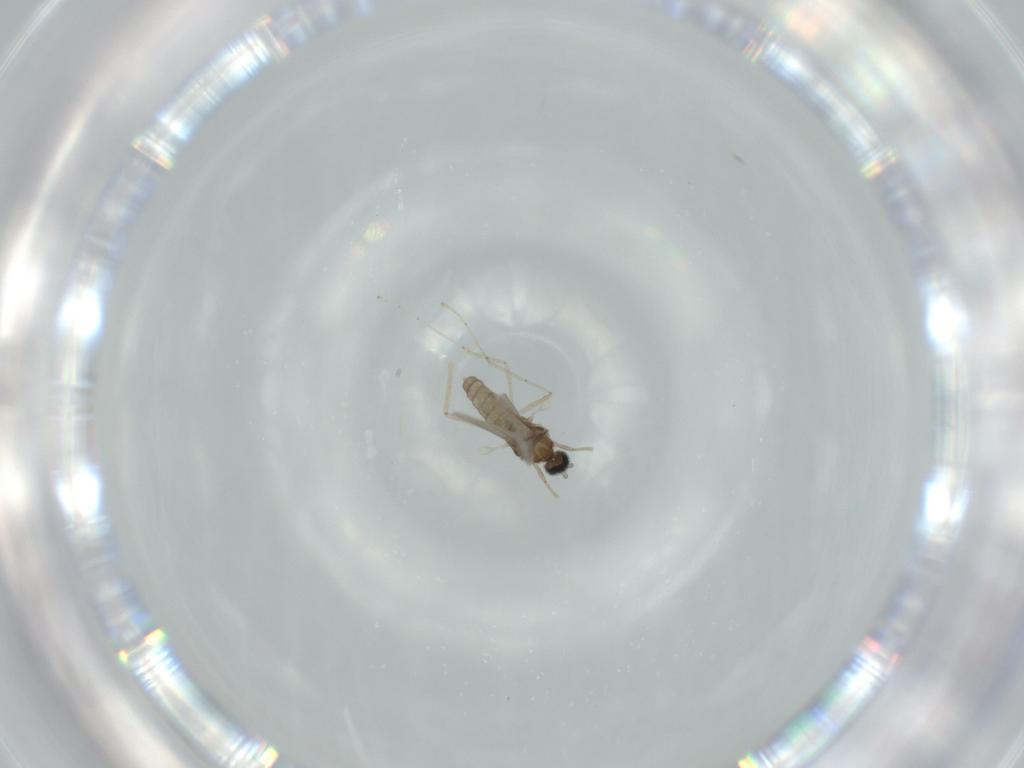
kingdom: Animalia
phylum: Arthropoda
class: Insecta
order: Diptera
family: Cecidomyiidae
